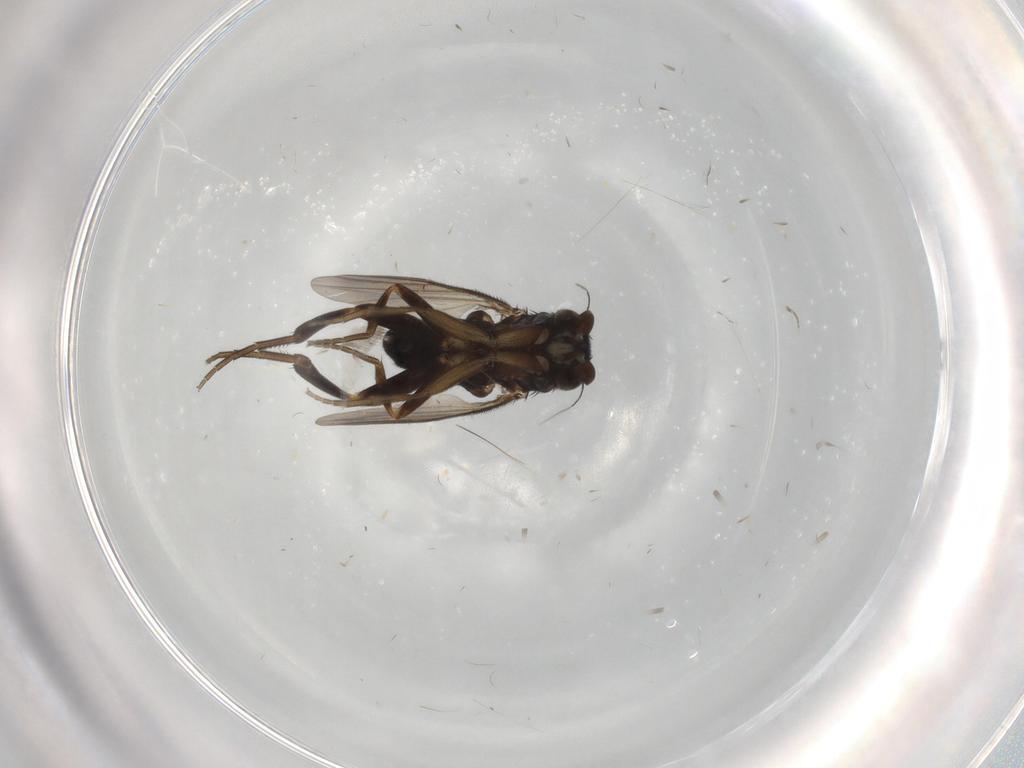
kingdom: Animalia
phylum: Arthropoda
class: Insecta
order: Diptera
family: Phoridae
